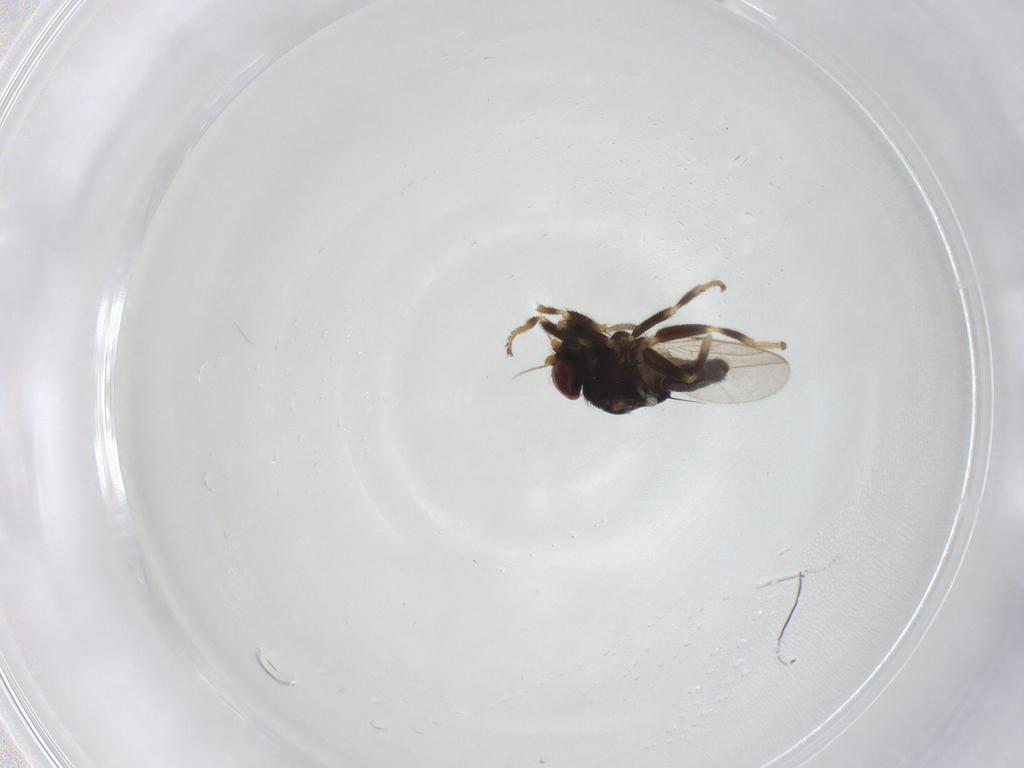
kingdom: Animalia
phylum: Arthropoda
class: Insecta
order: Diptera
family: Chloropidae
